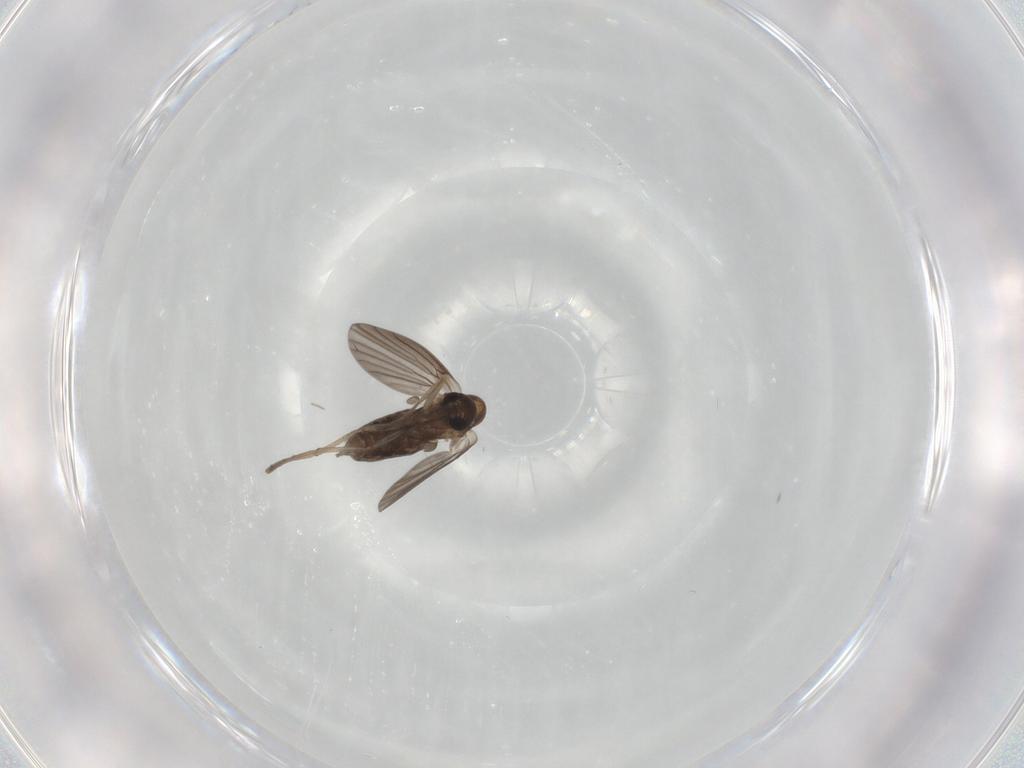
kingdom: Animalia
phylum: Arthropoda
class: Insecta
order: Diptera
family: Cecidomyiidae
